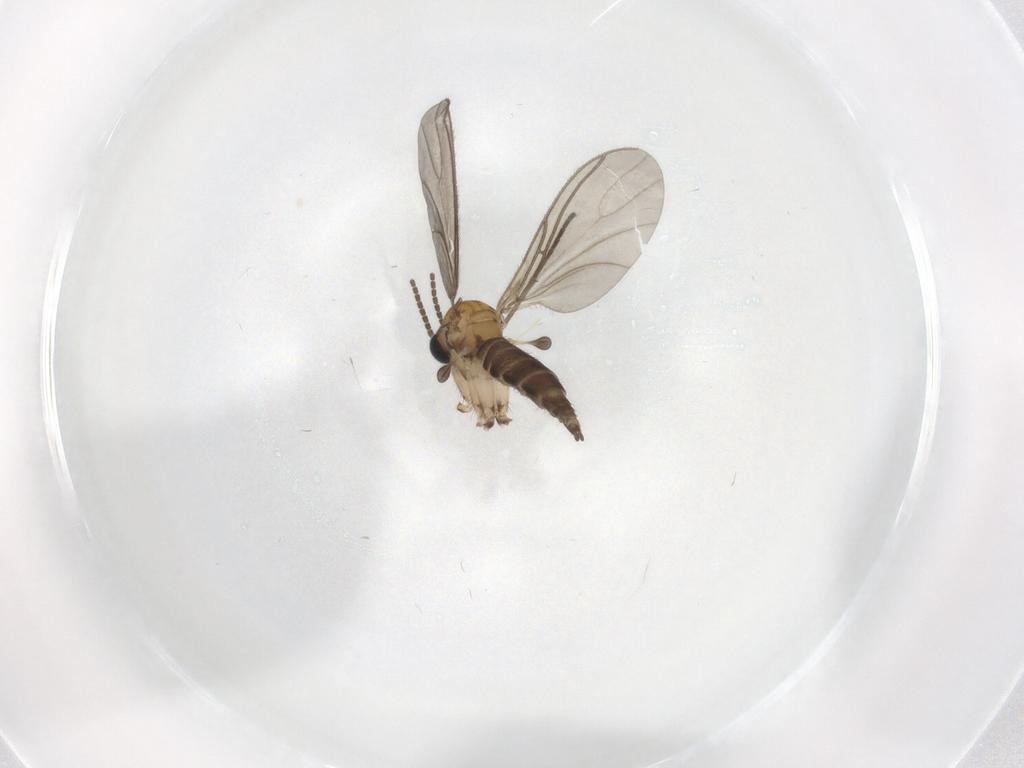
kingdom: Animalia
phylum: Arthropoda
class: Insecta
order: Diptera
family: Sciaridae
